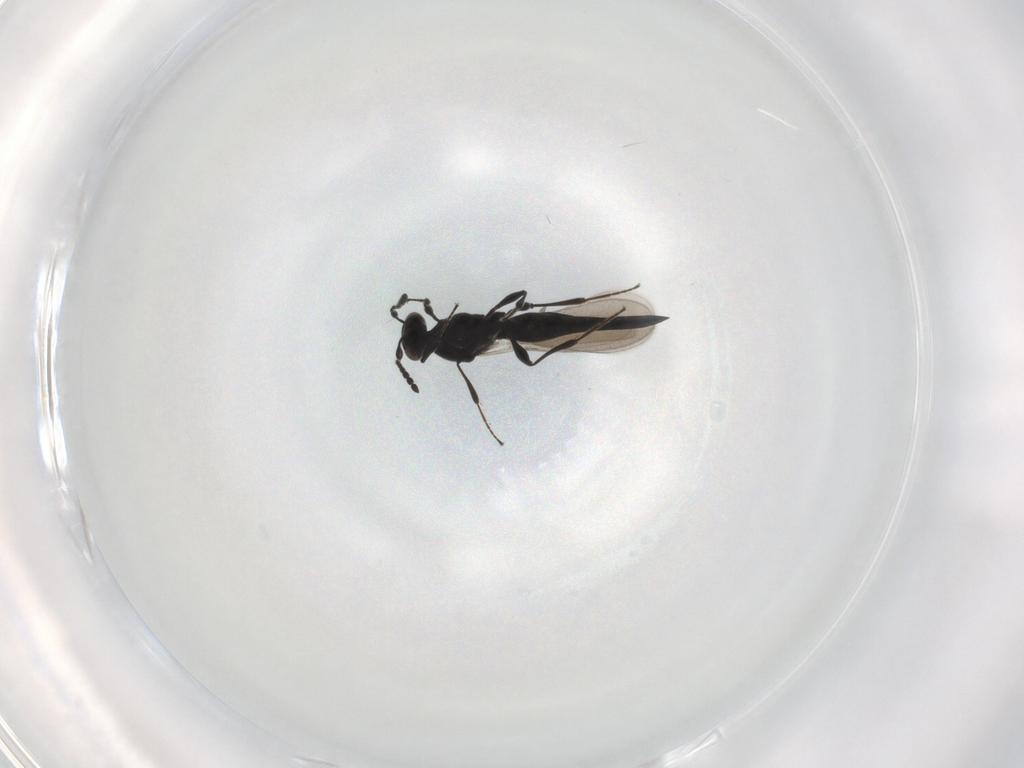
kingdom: Animalia
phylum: Arthropoda
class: Insecta
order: Hymenoptera
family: Platygastridae
